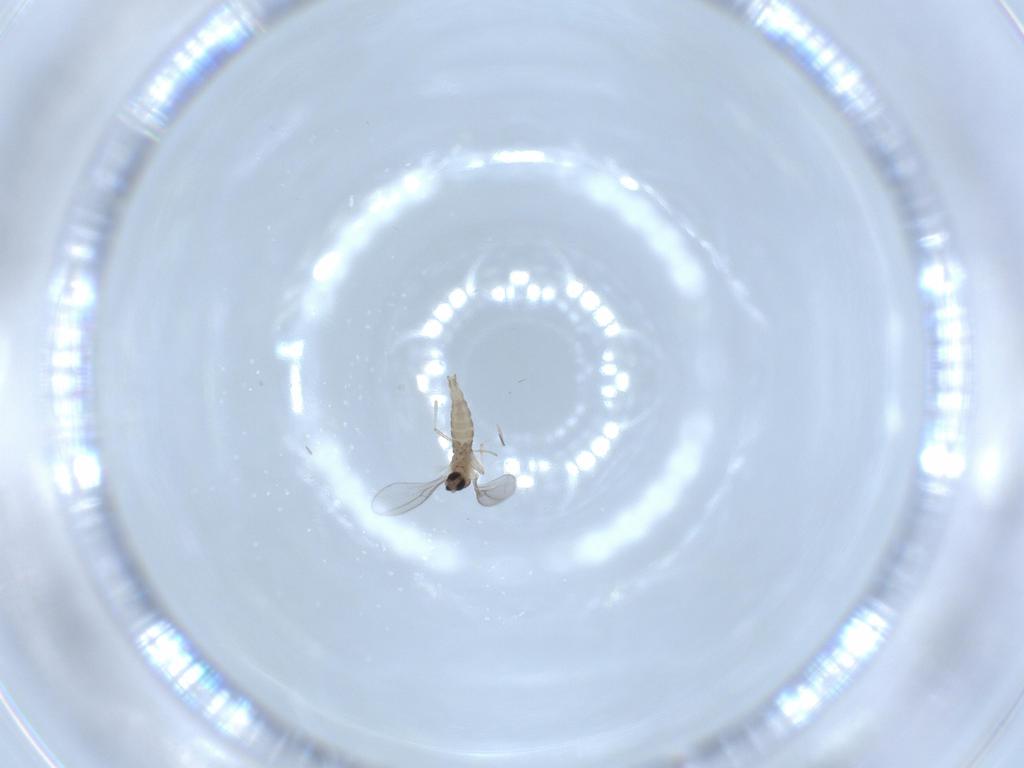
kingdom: Animalia
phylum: Arthropoda
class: Insecta
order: Diptera
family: Cecidomyiidae
